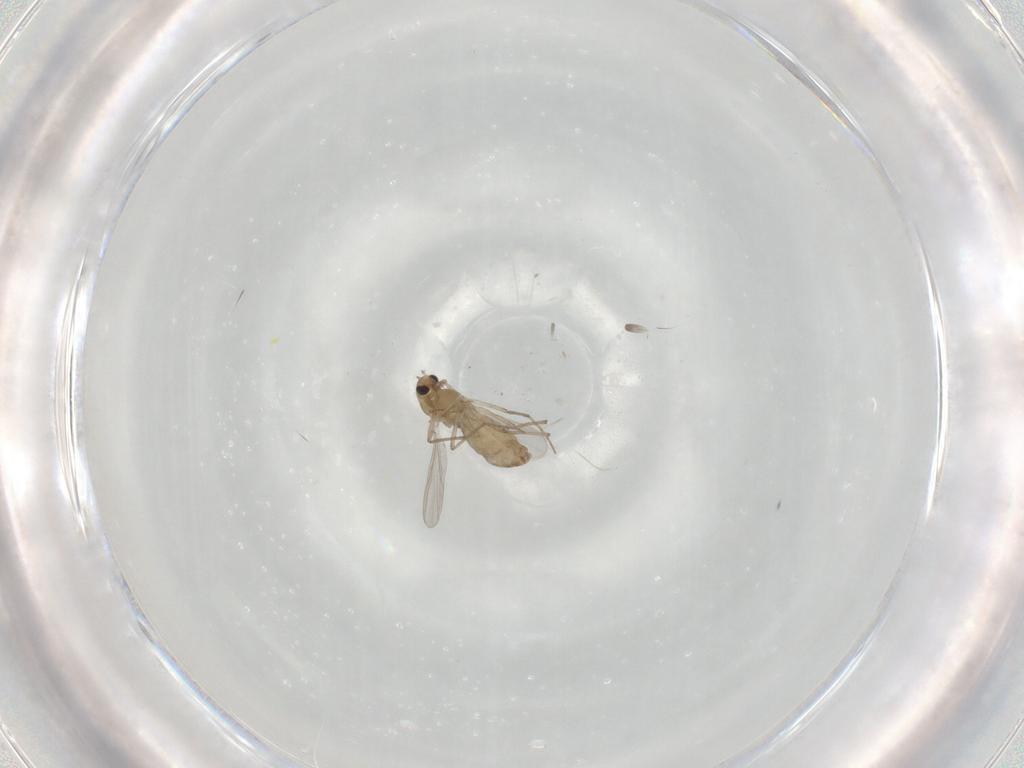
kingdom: Animalia
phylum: Arthropoda
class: Insecta
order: Diptera
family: Chironomidae
